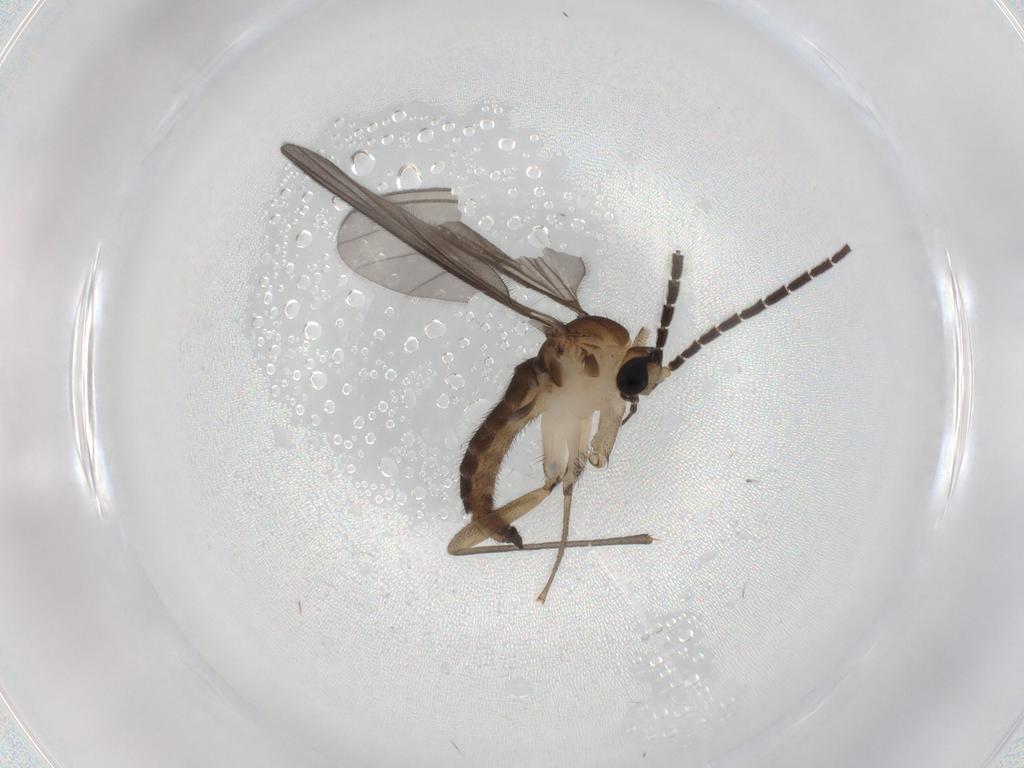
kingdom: Animalia
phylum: Arthropoda
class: Insecta
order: Diptera
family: Sciaridae
